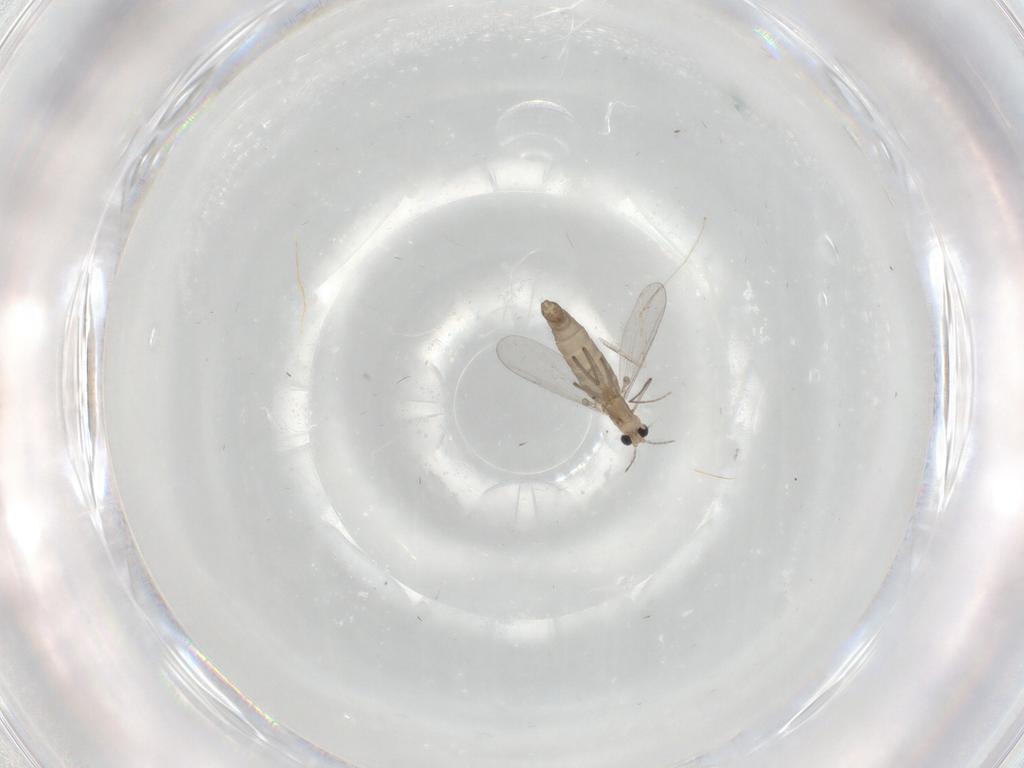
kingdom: Animalia
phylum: Arthropoda
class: Insecta
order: Diptera
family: Chironomidae
